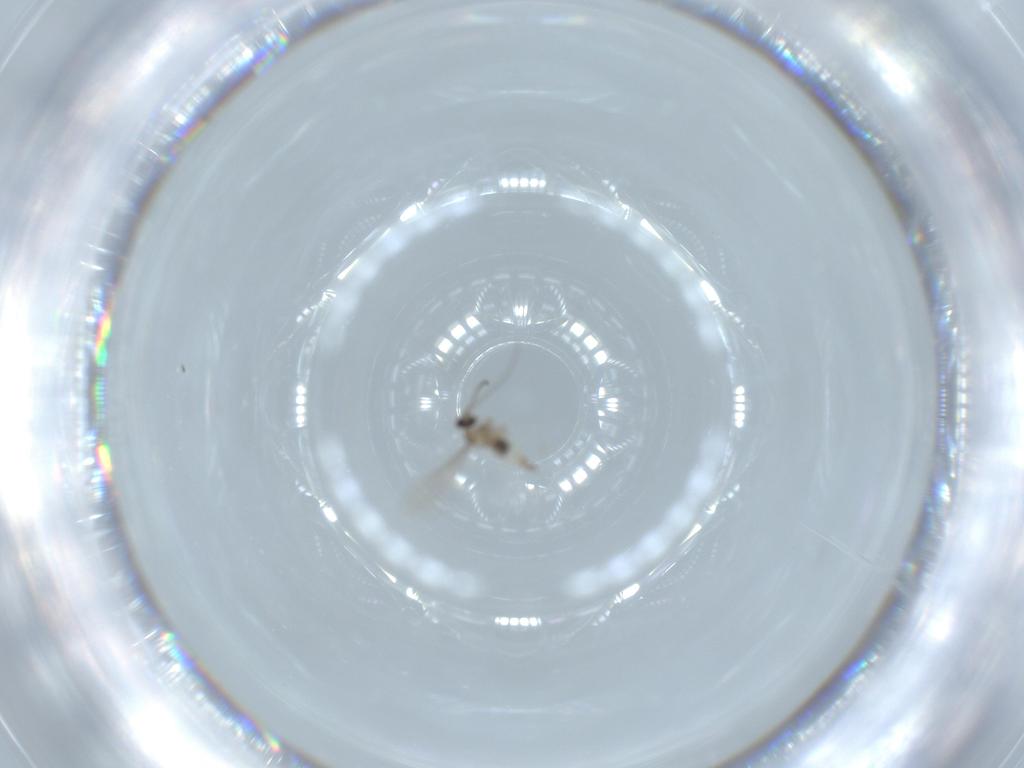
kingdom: Animalia
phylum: Arthropoda
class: Insecta
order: Diptera
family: Cecidomyiidae
